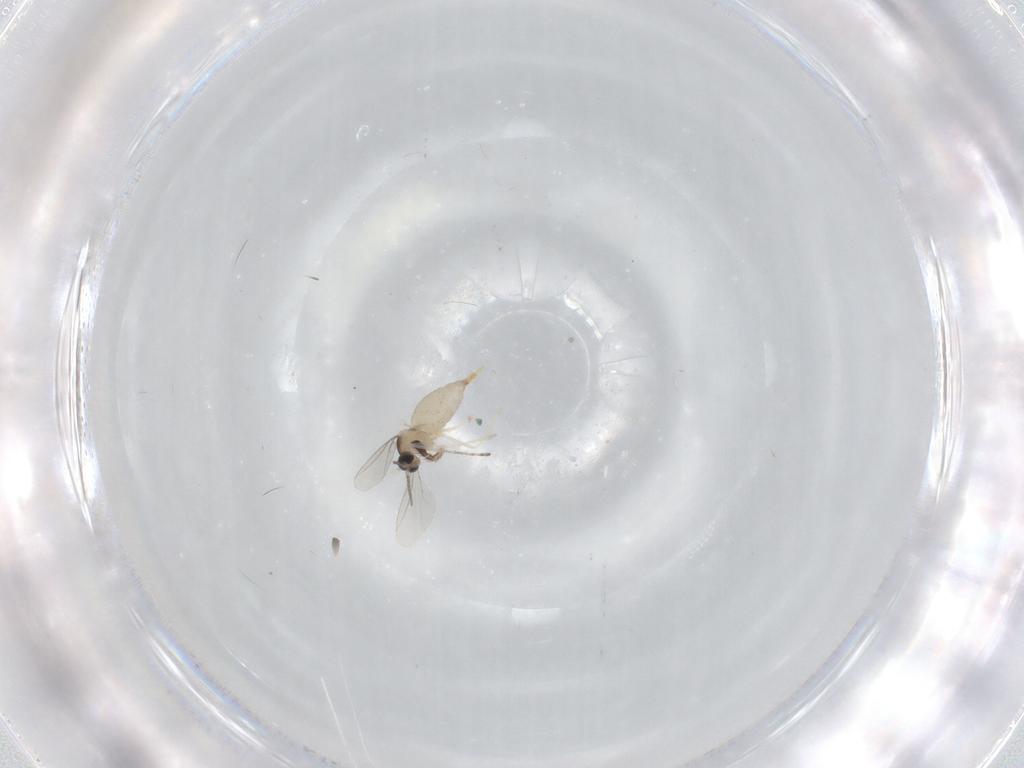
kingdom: Animalia
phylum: Arthropoda
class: Insecta
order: Diptera
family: Cecidomyiidae
